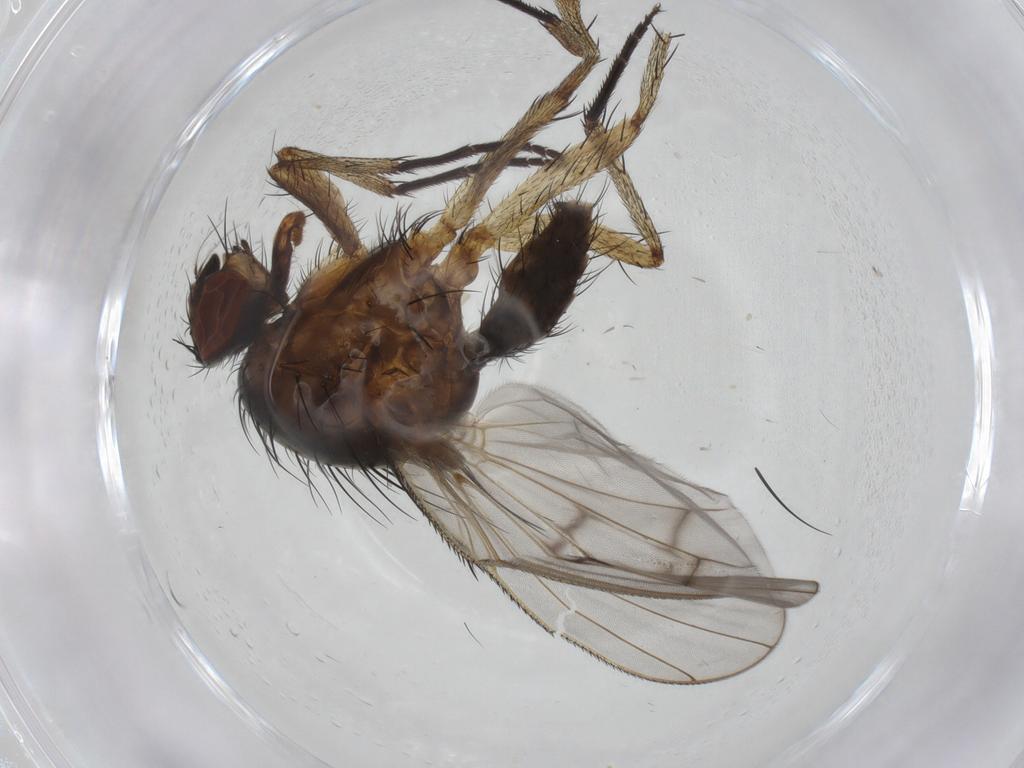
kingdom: Animalia
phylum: Arthropoda
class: Insecta
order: Diptera
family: Anthomyiidae
